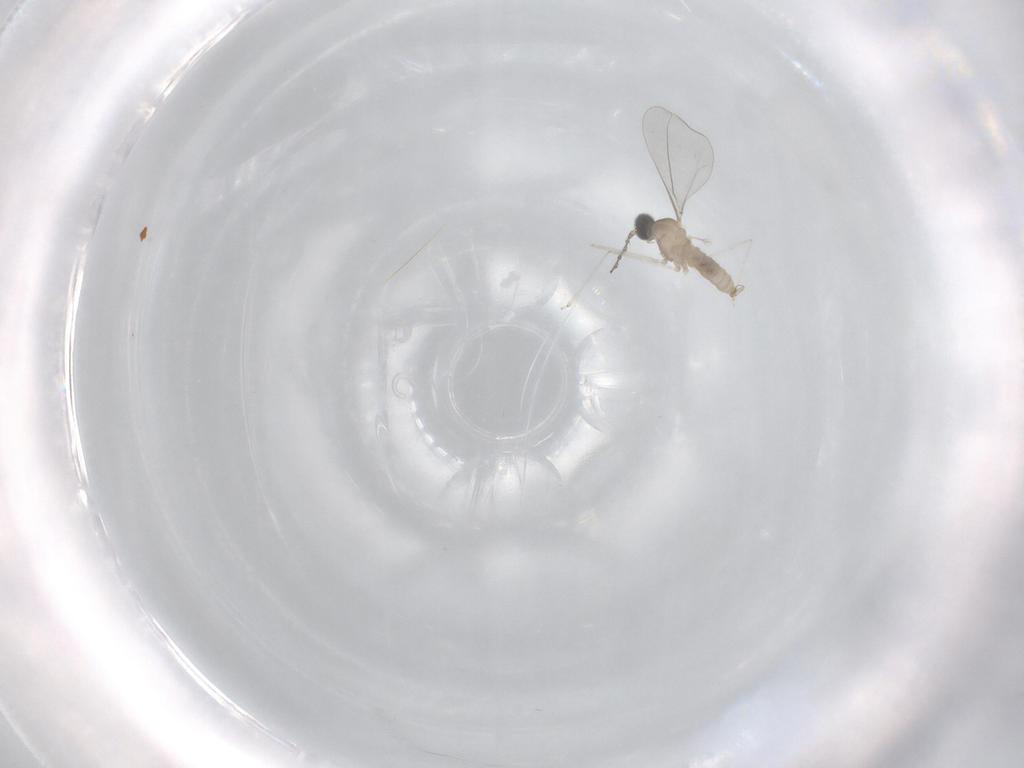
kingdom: Animalia
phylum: Arthropoda
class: Insecta
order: Diptera
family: Cecidomyiidae
